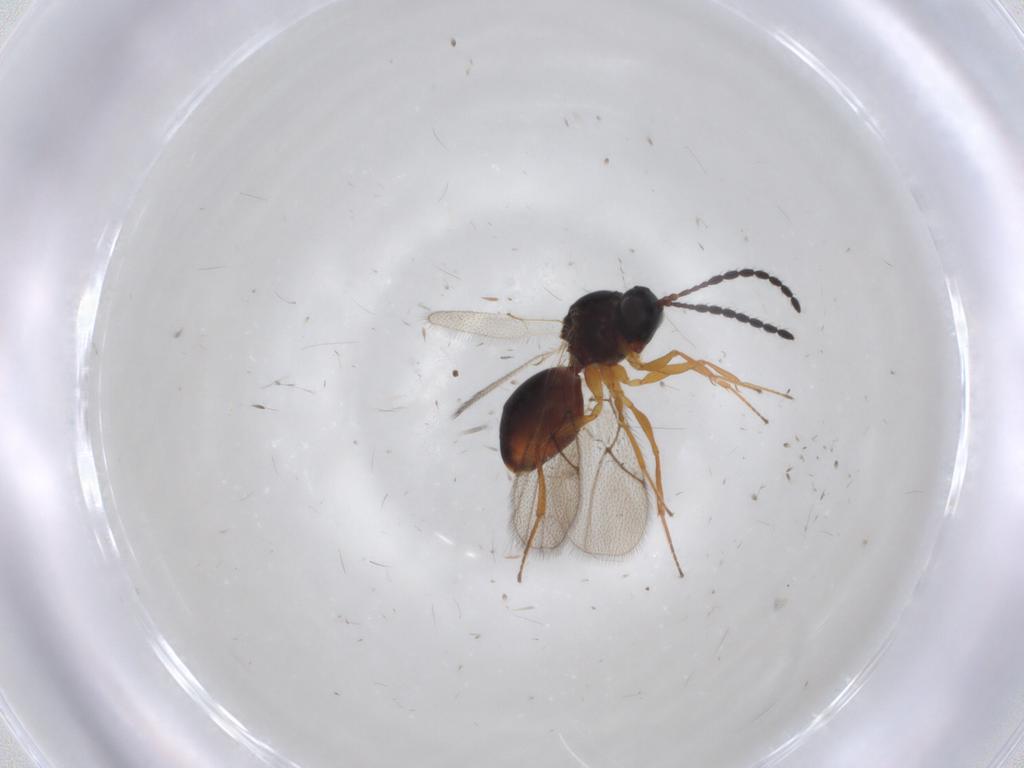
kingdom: Animalia
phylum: Arthropoda
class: Insecta
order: Hymenoptera
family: Figitidae
